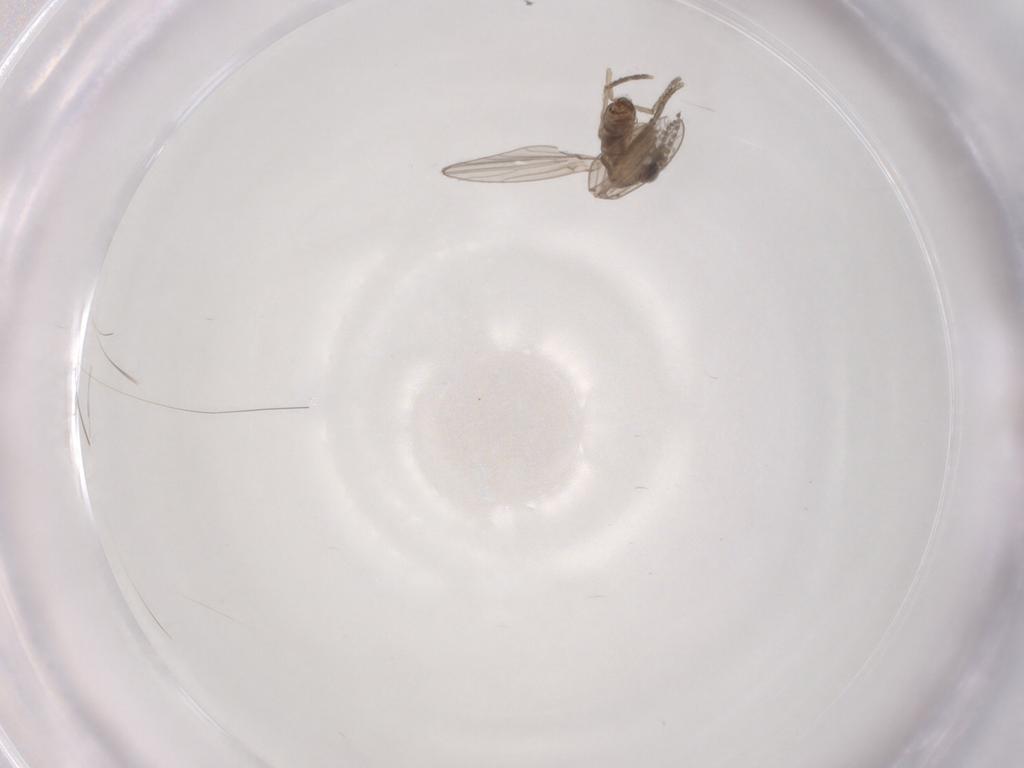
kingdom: Animalia
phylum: Arthropoda
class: Insecta
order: Diptera
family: Psychodidae
